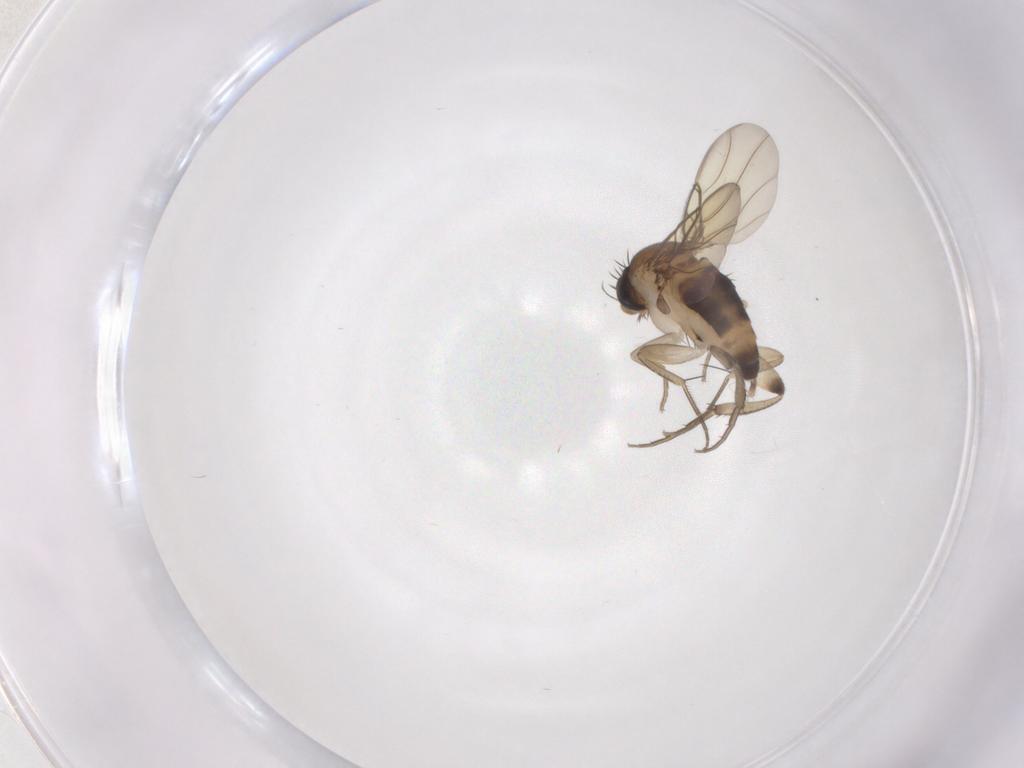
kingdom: Animalia
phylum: Arthropoda
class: Insecta
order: Diptera
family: Phoridae
